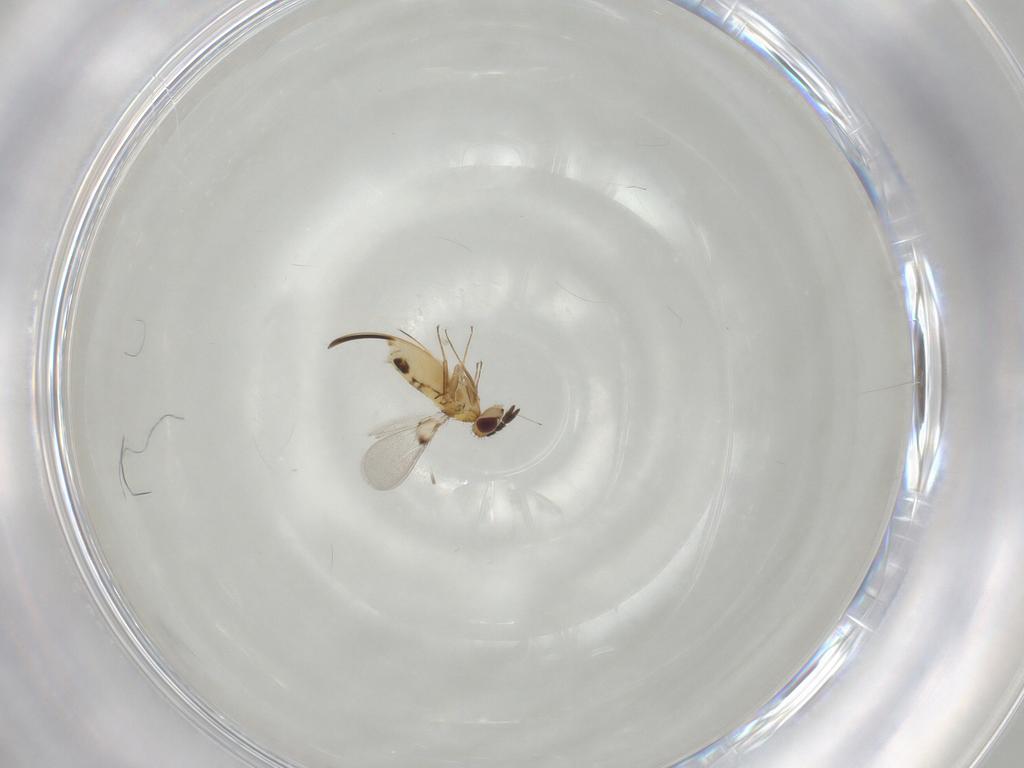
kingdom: Animalia
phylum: Arthropoda
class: Insecta
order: Hymenoptera
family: Trichogrammatidae
